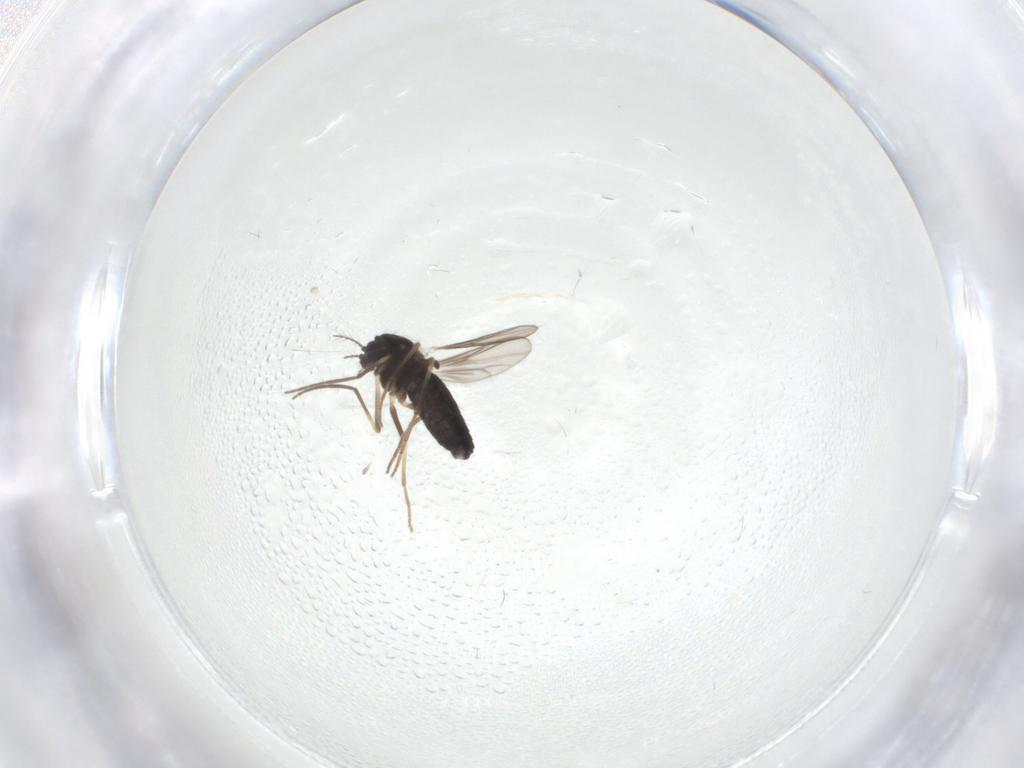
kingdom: Animalia
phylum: Arthropoda
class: Insecta
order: Diptera
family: Chironomidae
